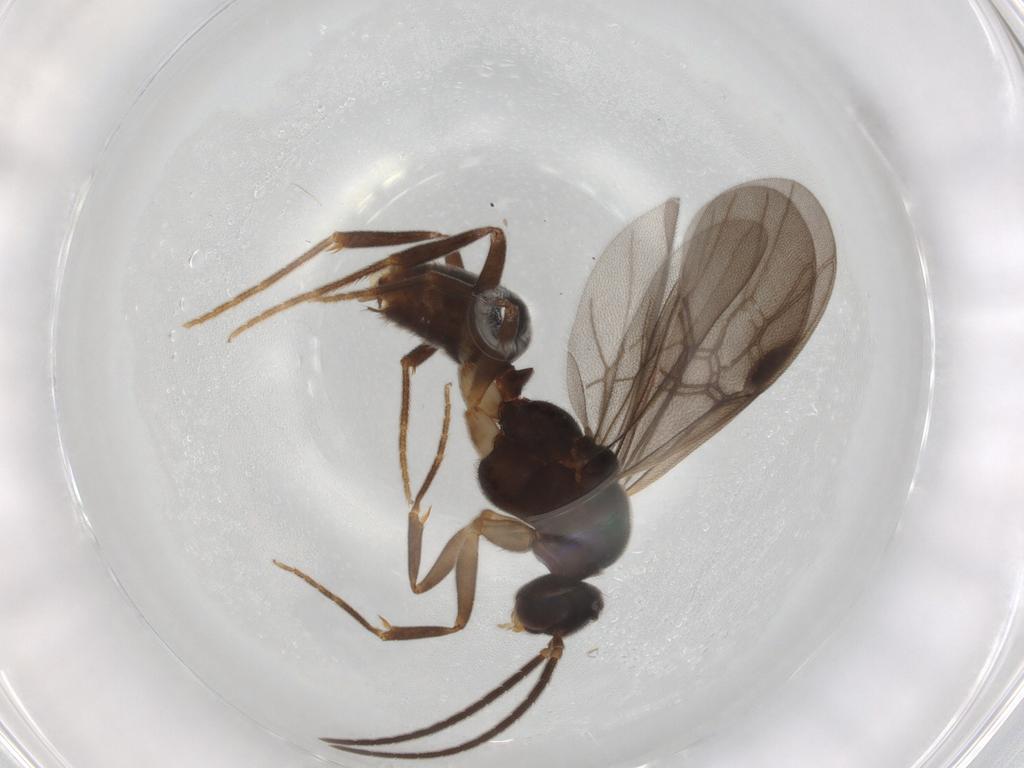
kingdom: Animalia
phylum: Arthropoda
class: Insecta
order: Hymenoptera
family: Formicidae
